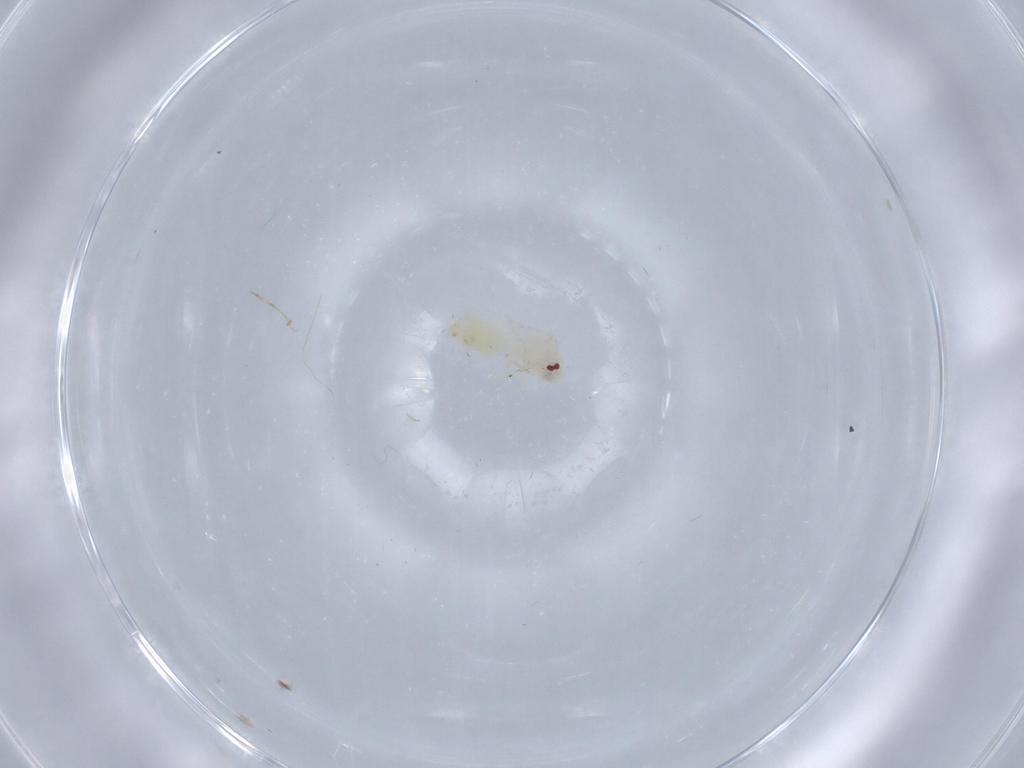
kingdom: Animalia
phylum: Arthropoda
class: Insecta
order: Hemiptera
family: Aleyrodidae
